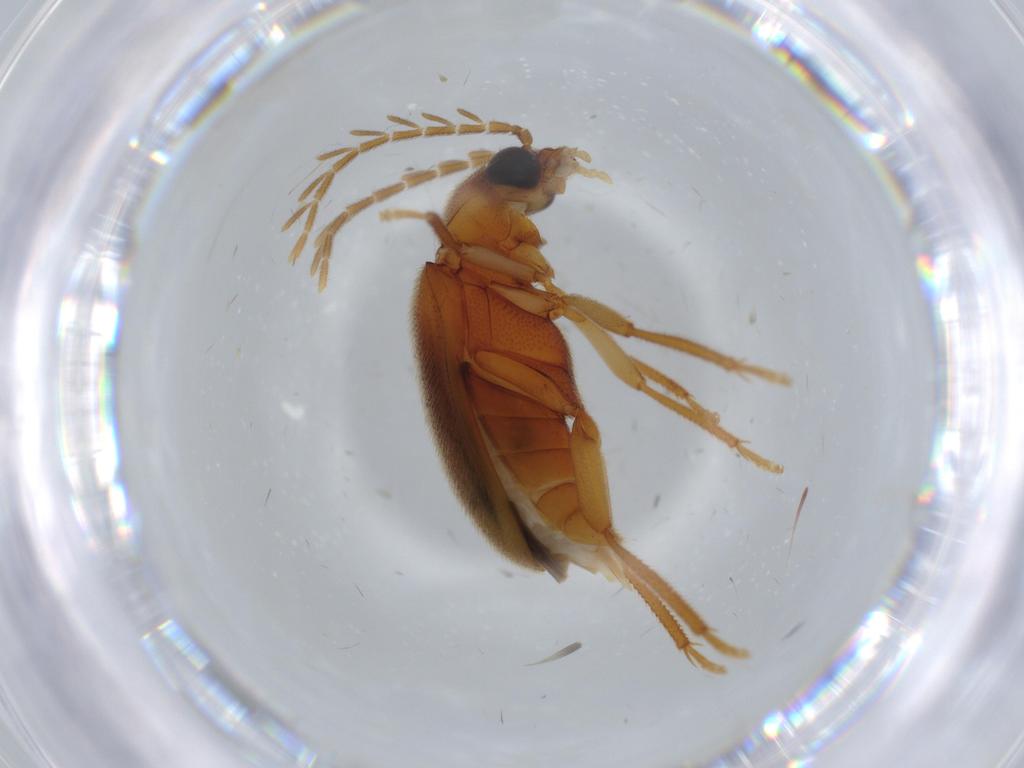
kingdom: Animalia
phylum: Arthropoda
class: Insecta
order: Coleoptera
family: Ptilodactylidae
